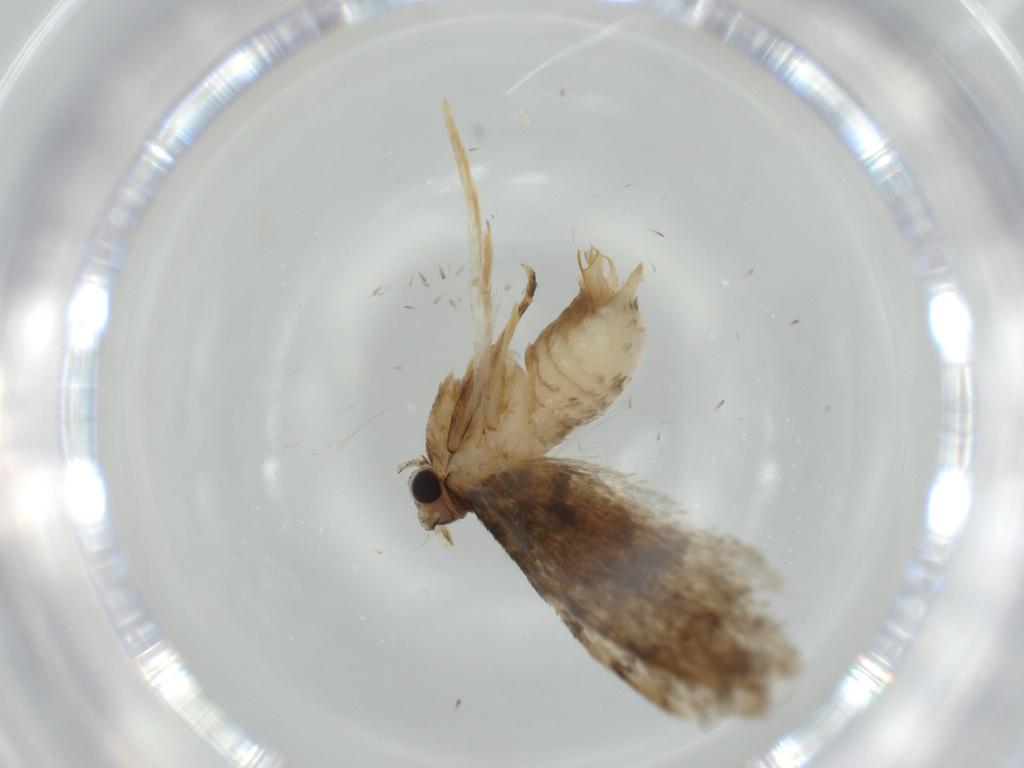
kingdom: Animalia
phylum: Arthropoda
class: Insecta
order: Lepidoptera
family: Tineidae
